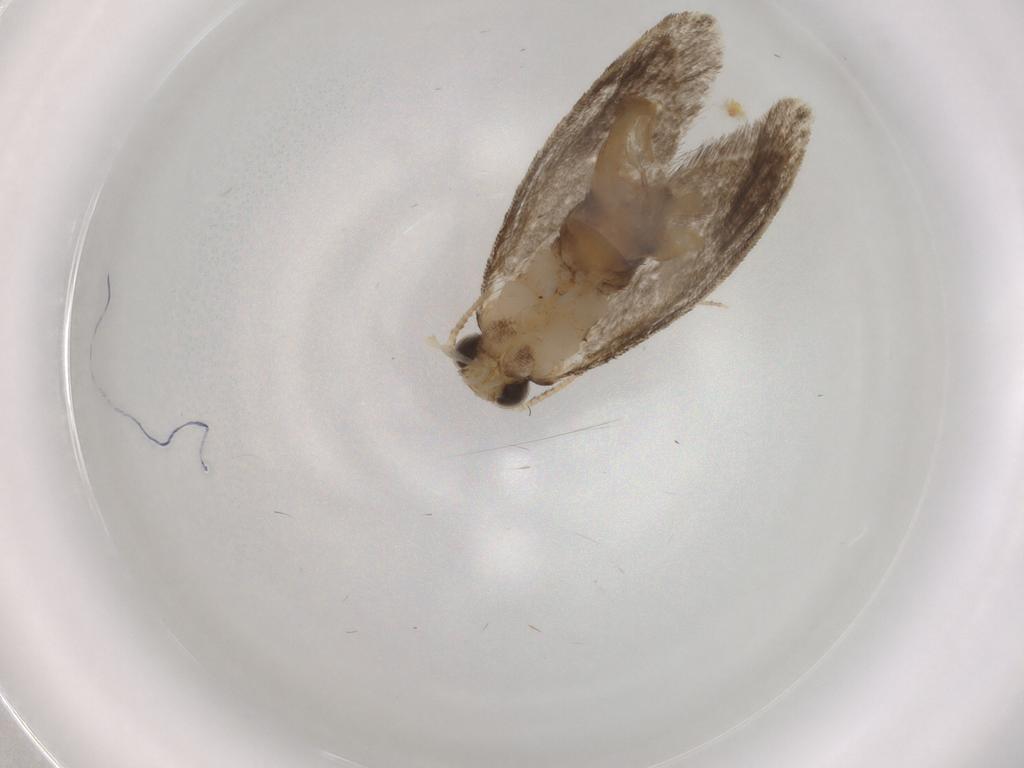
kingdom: Animalia
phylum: Arthropoda
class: Insecta
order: Lepidoptera
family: Tineidae
